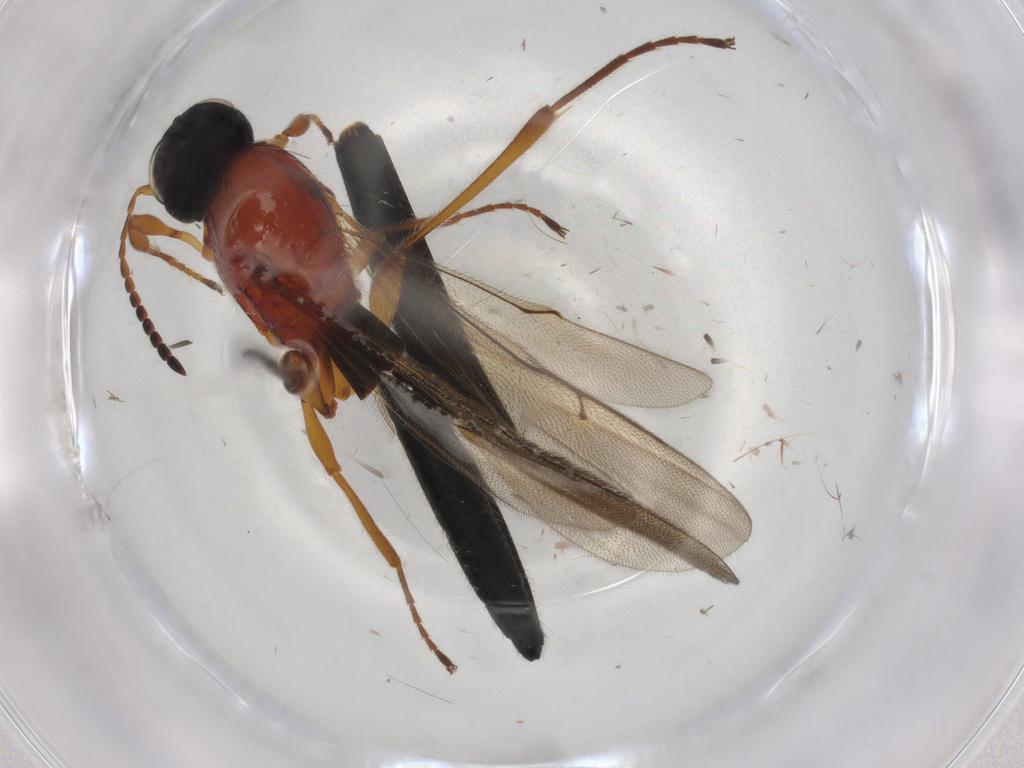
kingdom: Animalia
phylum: Arthropoda
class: Insecta
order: Hymenoptera
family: Scelionidae
